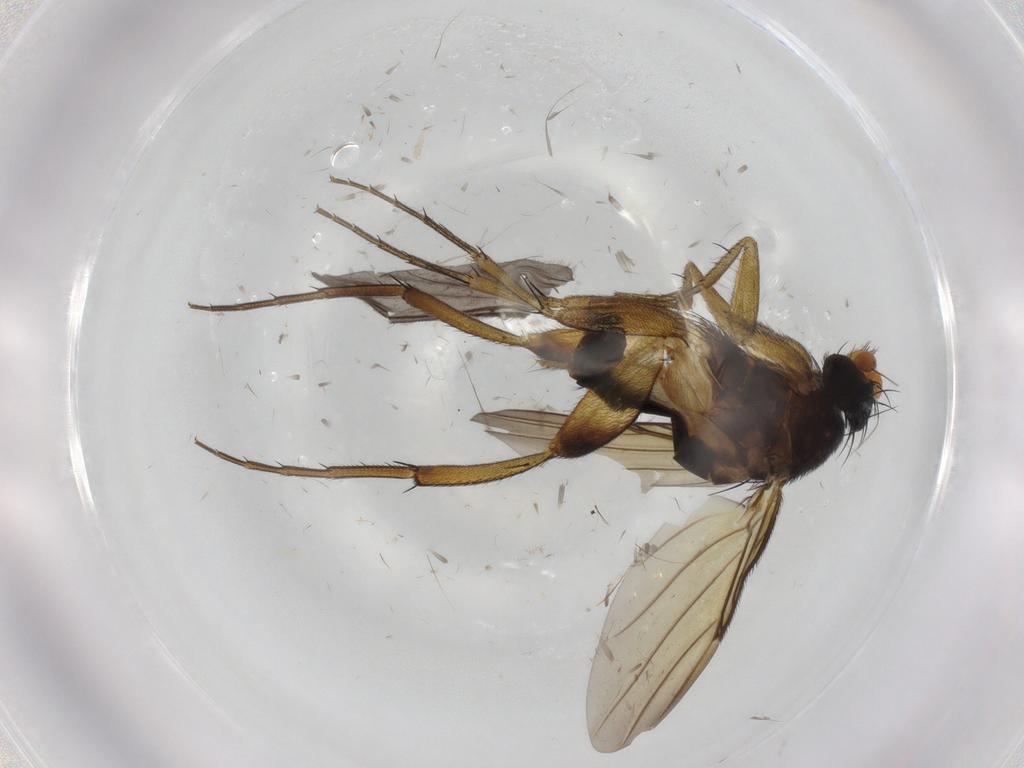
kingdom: Animalia
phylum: Arthropoda
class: Insecta
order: Diptera
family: Phoridae
